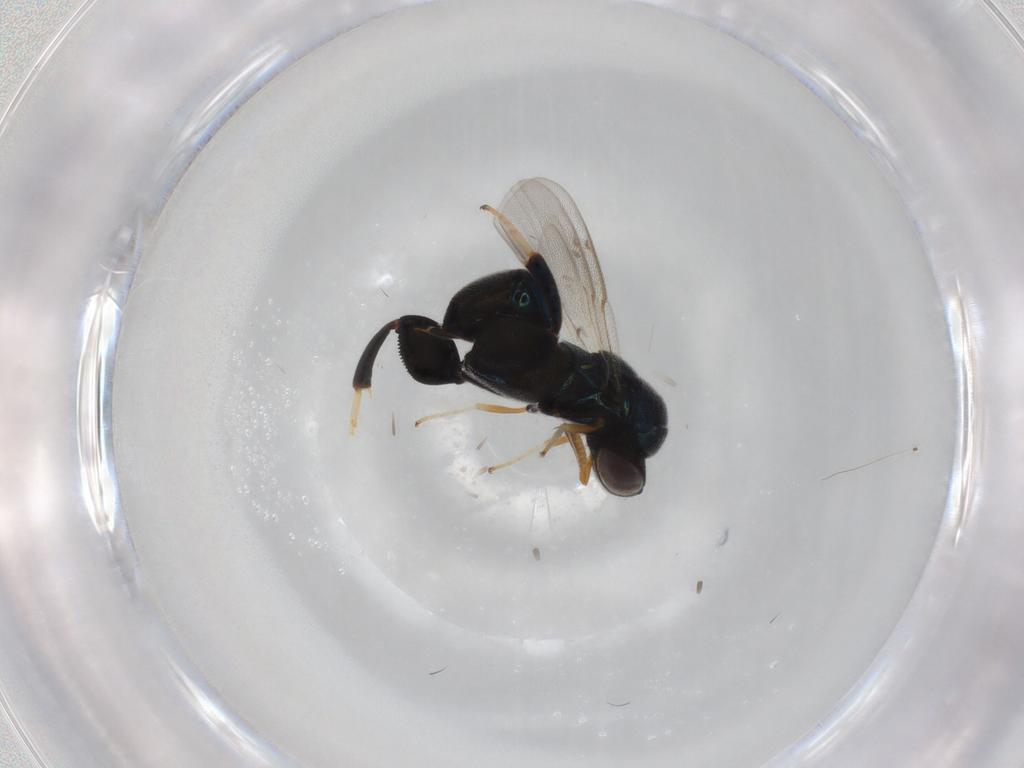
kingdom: Animalia
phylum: Arthropoda
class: Insecta
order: Hymenoptera
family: Torymidae
